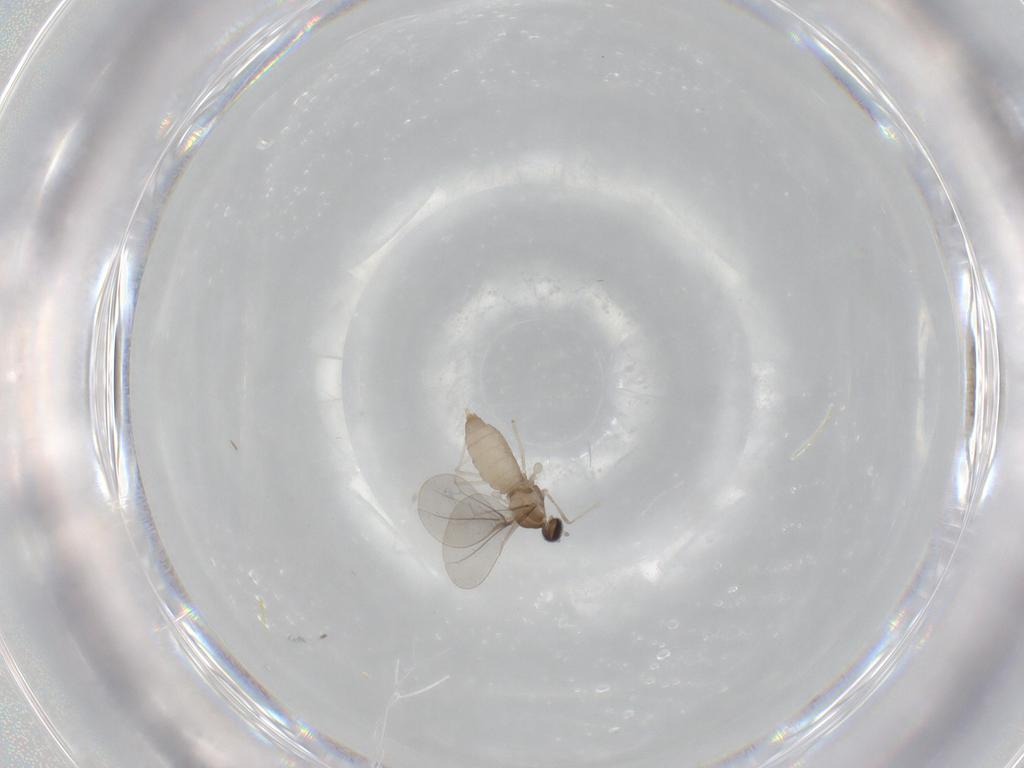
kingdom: Animalia
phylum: Arthropoda
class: Insecta
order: Diptera
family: Cecidomyiidae
